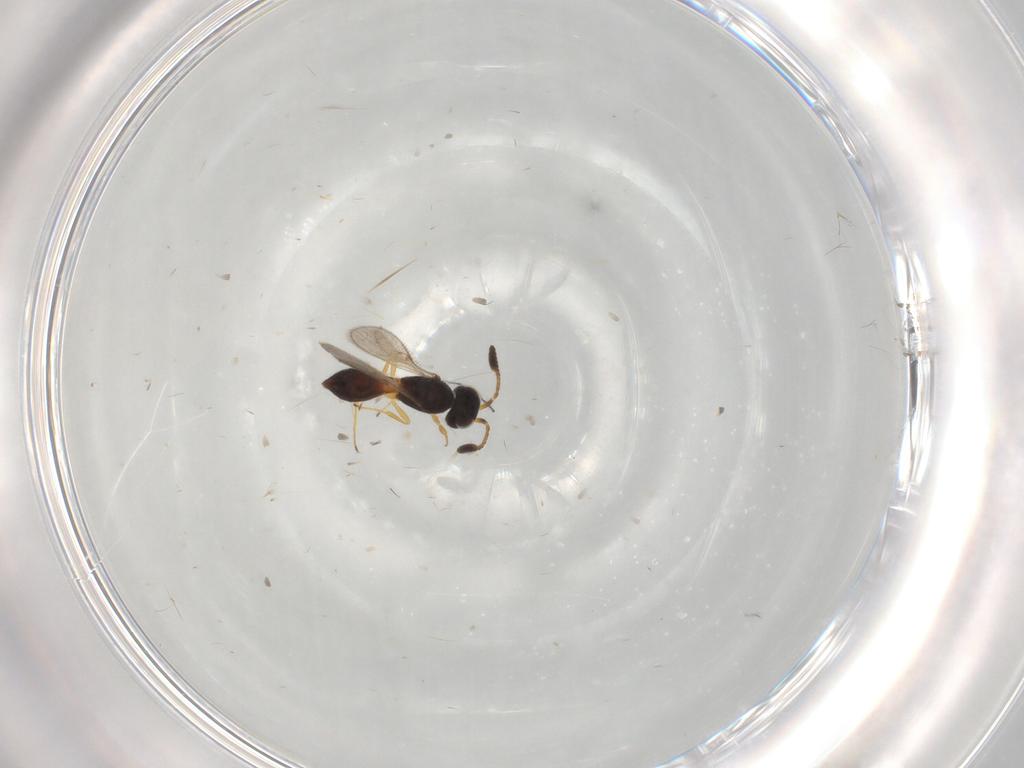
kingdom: Animalia
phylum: Arthropoda
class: Insecta
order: Hymenoptera
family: Scelionidae
